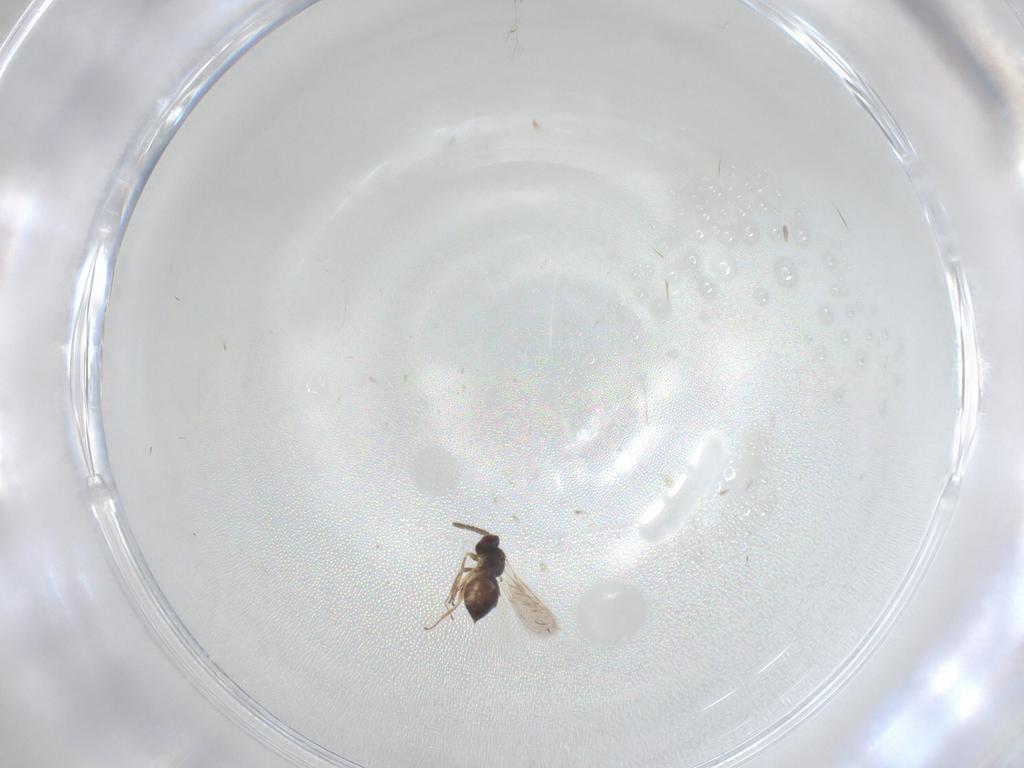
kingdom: Animalia
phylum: Arthropoda
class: Insecta
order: Hymenoptera
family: Tetracampidae
